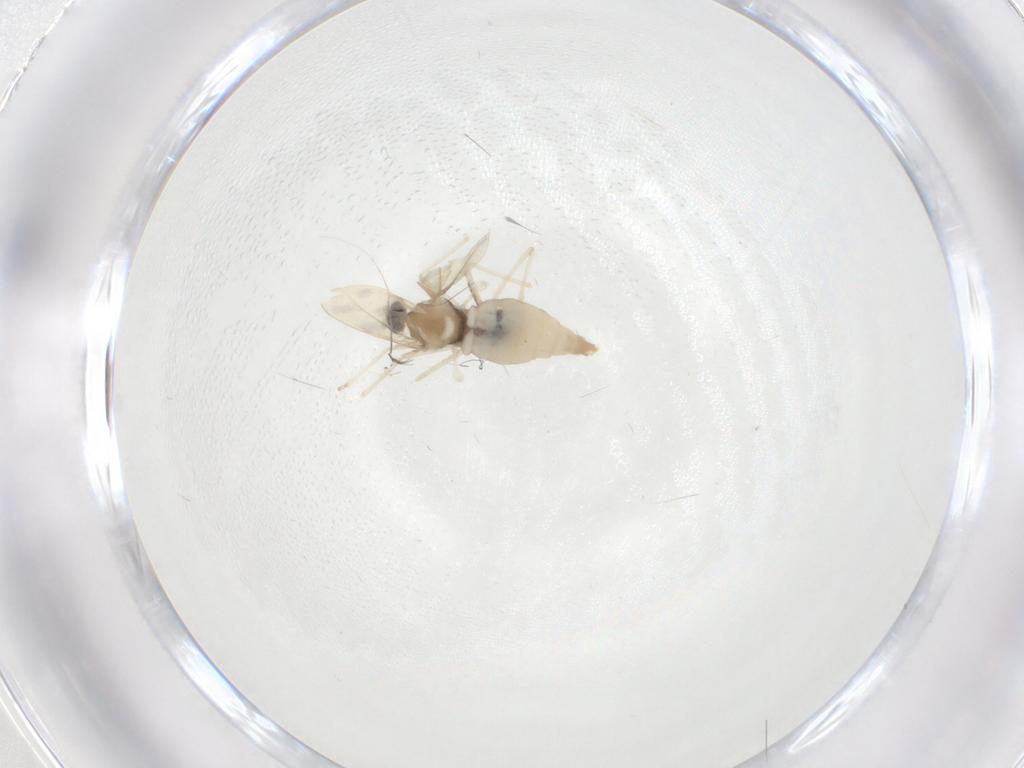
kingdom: Animalia
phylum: Arthropoda
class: Insecta
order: Diptera
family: Cecidomyiidae
